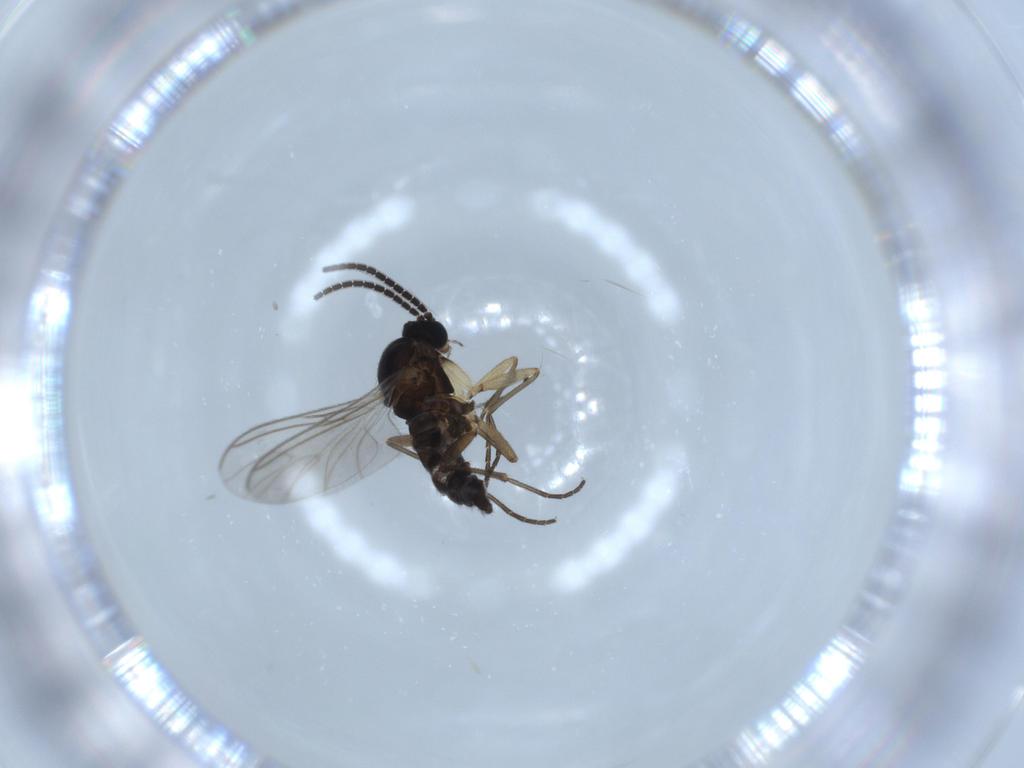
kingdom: Animalia
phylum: Arthropoda
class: Insecta
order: Diptera
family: Sciaridae
